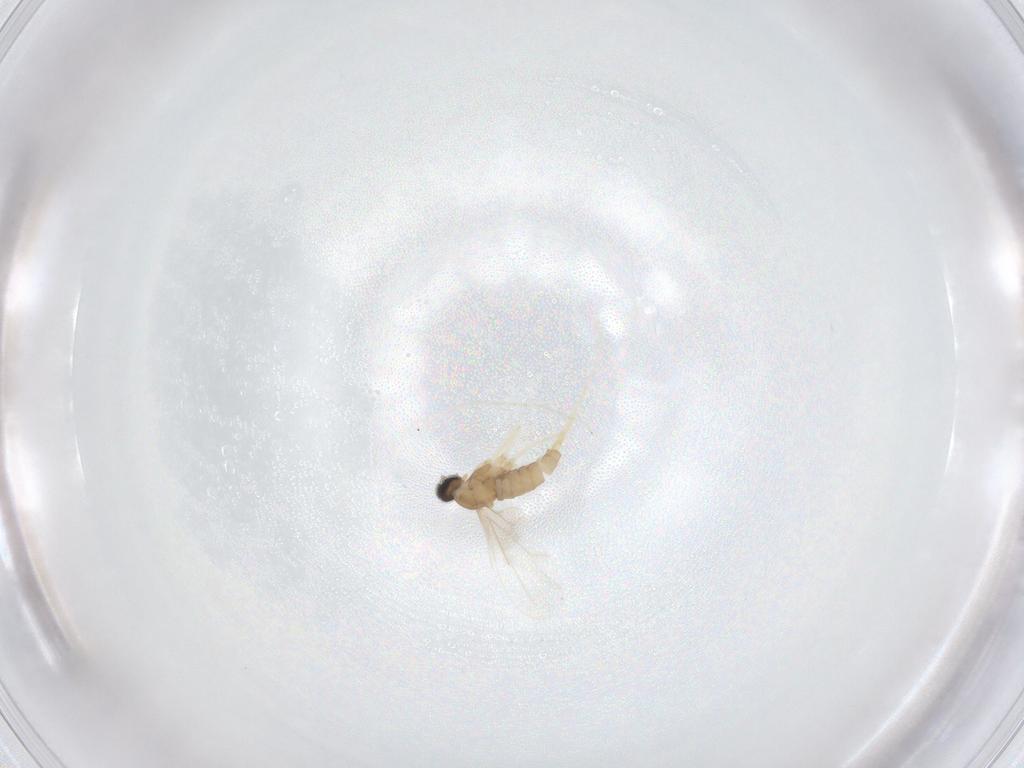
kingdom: Animalia
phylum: Arthropoda
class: Insecta
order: Diptera
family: Cecidomyiidae
